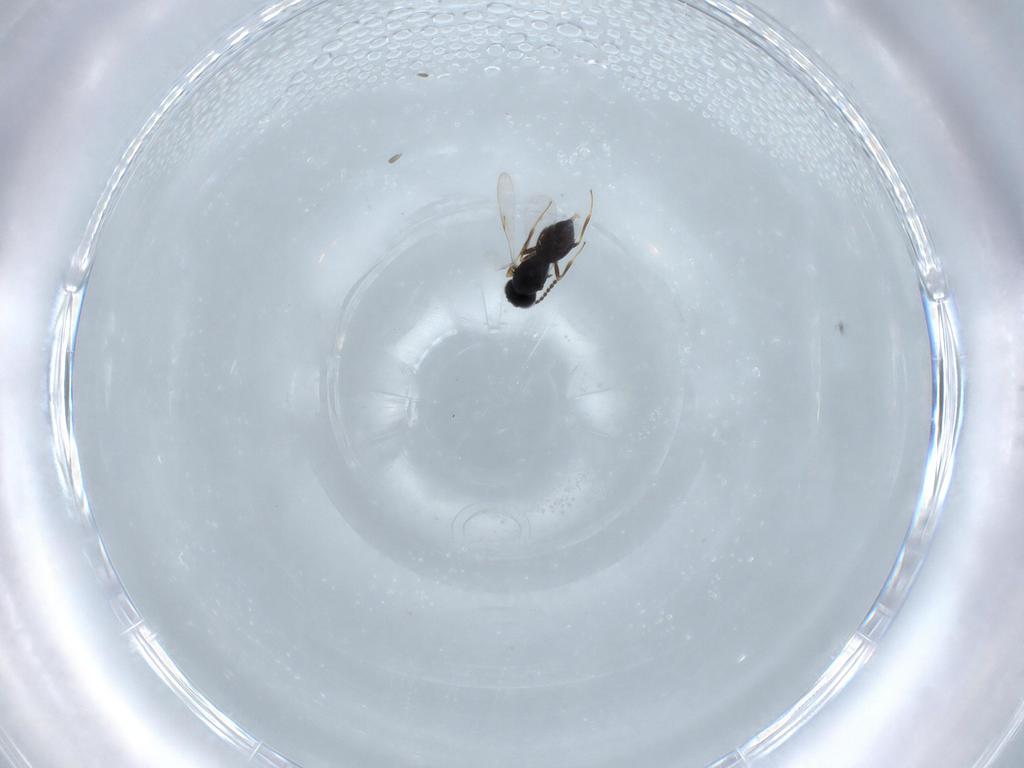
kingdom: Animalia
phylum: Arthropoda
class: Insecta
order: Hymenoptera
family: Scelionidae
